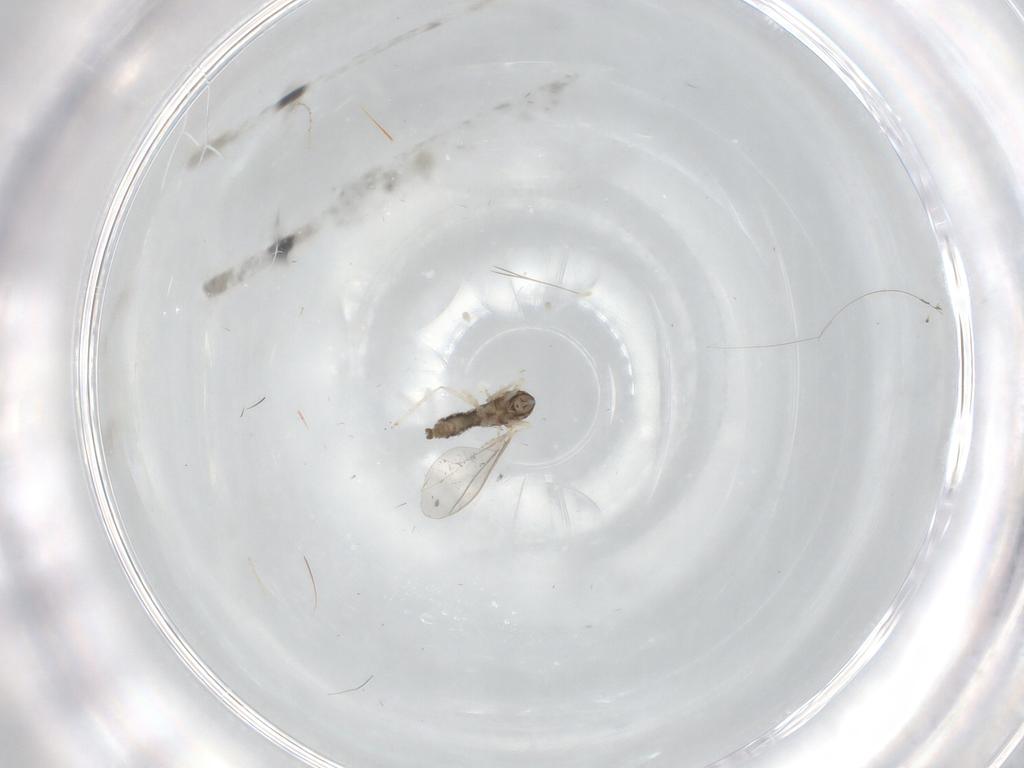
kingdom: Animalia
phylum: Arthropoda
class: Insecta
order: Diptera
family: Cecidomyiidae
